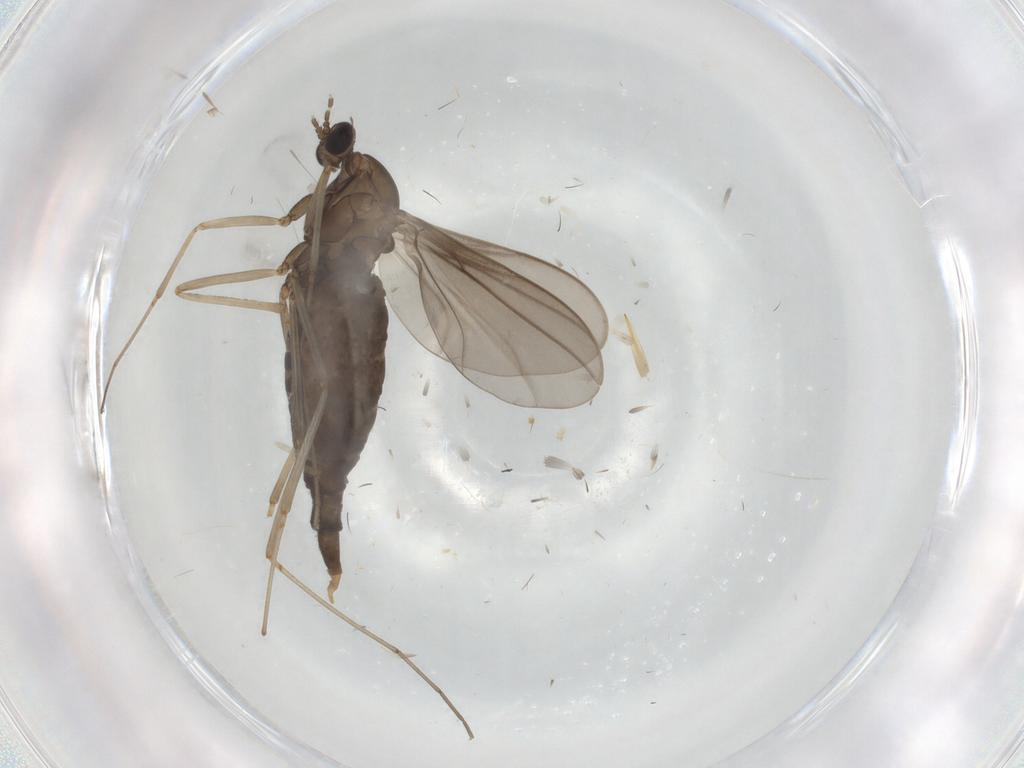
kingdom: Animalia
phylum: Arthropoda
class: Insecta
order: Diptera
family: Cecidomyiidae
